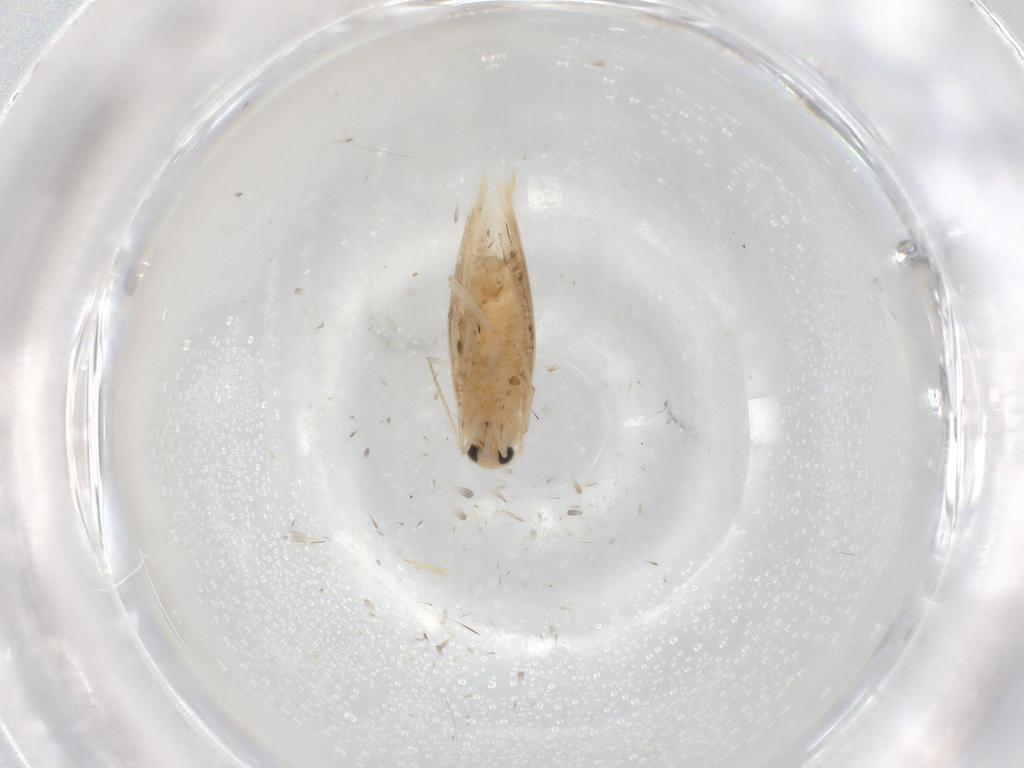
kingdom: Animalia
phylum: Arthropoda
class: Insecta
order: Lepidoptera
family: Bucculatricidae
